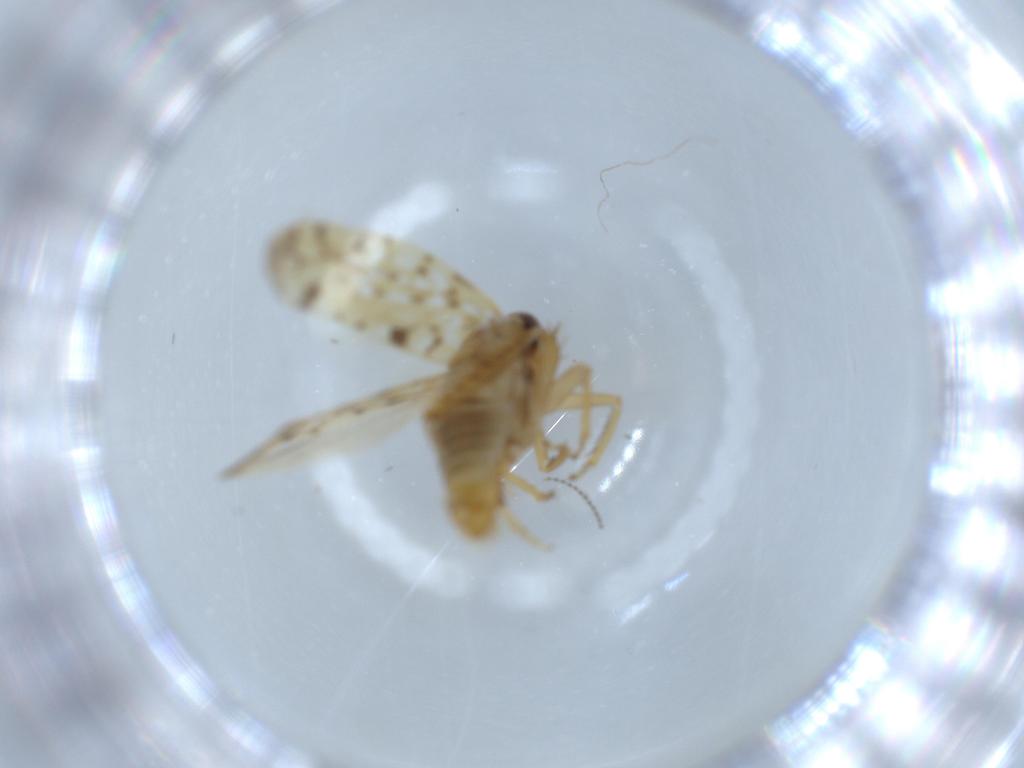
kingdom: Animalia
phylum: Arthropoda
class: Insecta
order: Hemiptera
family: Cicadellidae
